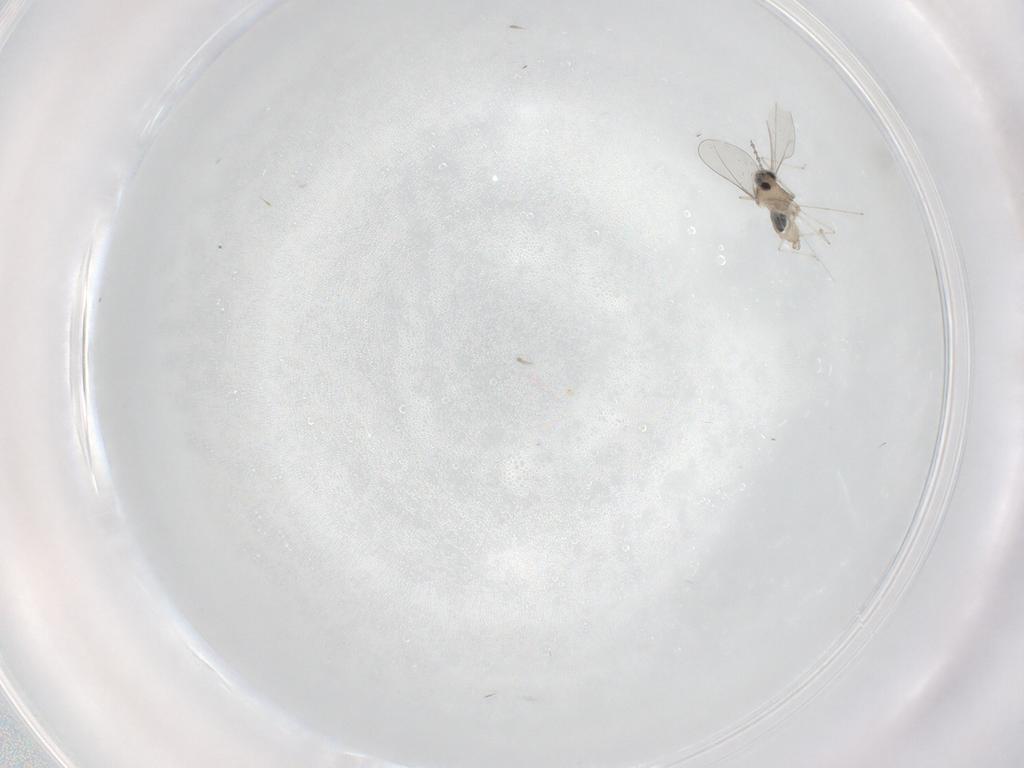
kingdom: Animalia
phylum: Arthropoda
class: Insecta
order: Diptera
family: Cecidomyiidae
